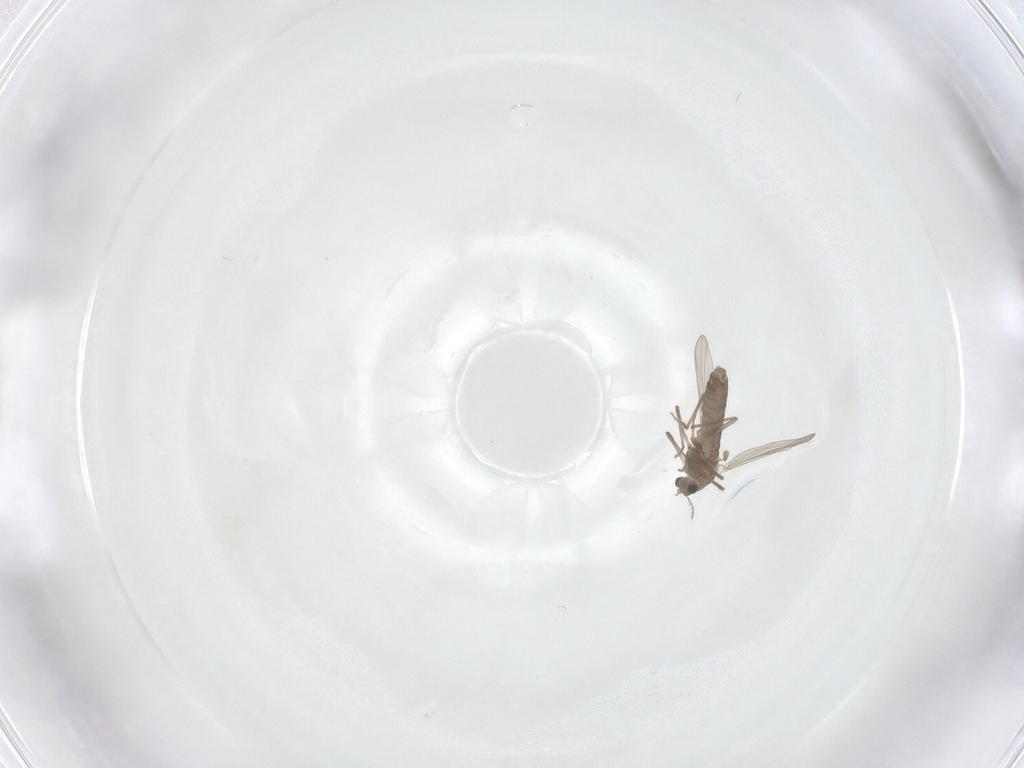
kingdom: Animalia
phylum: Arthropoda
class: Insecta
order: Diptera
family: Chironomidae
